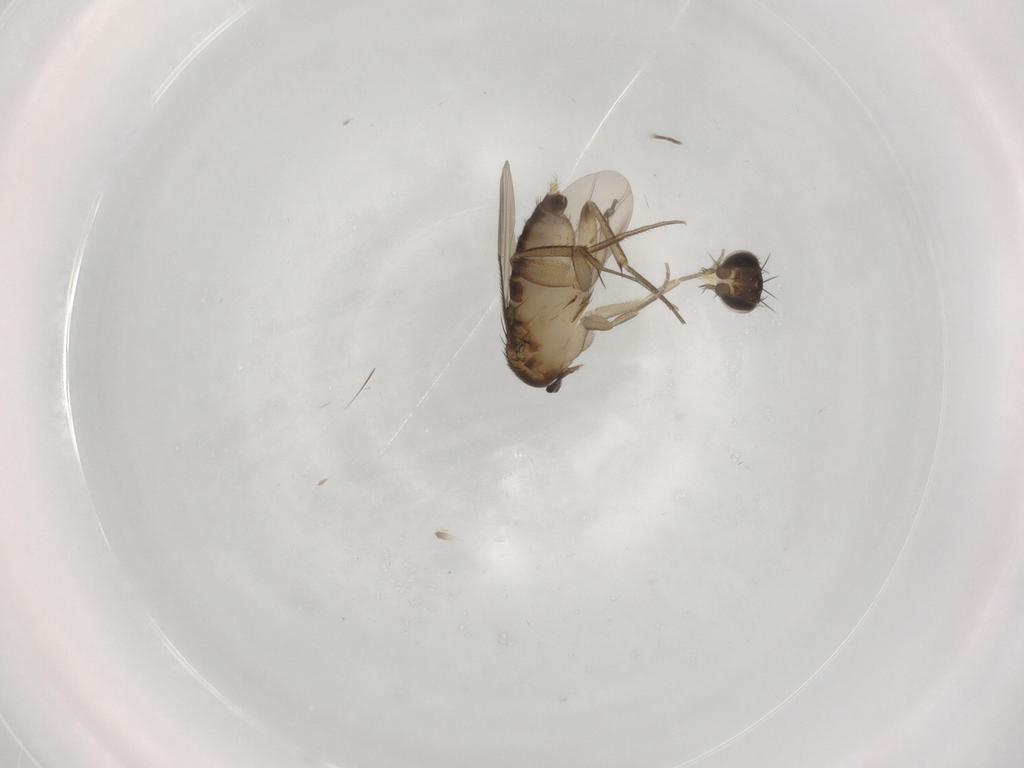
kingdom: Animalia
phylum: Arthropoda
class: Insecta
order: Diptera
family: Phoridae
